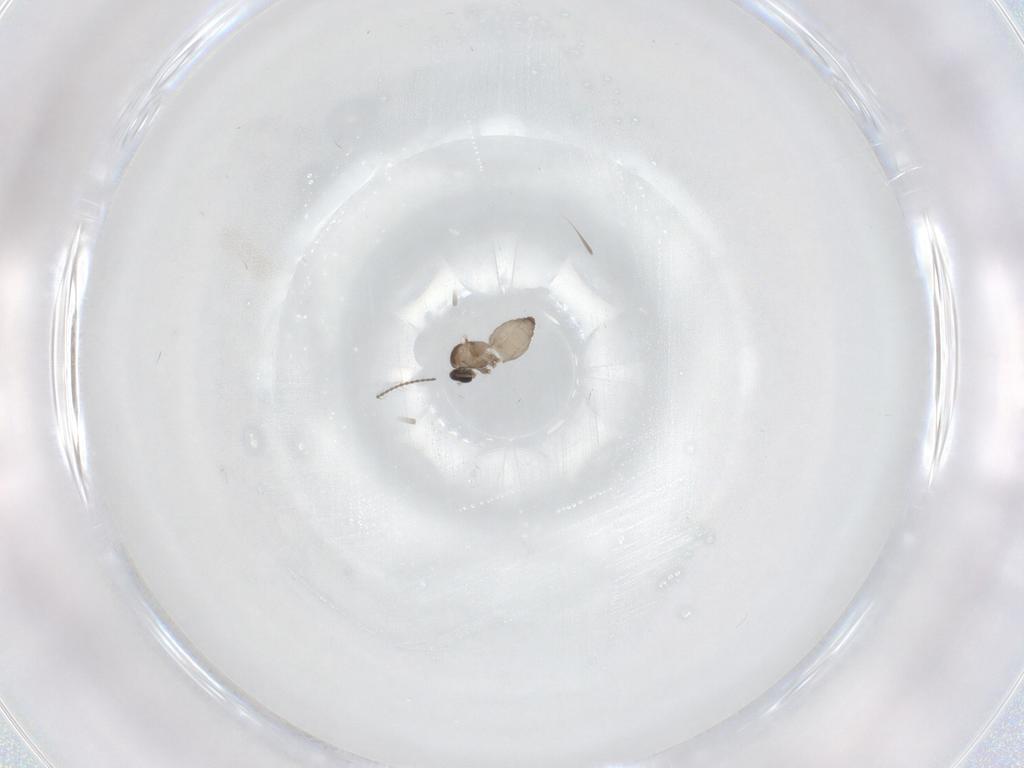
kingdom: Animalia
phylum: Arthropoda
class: Insecta
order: Diptera
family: Cecidomyiidae
